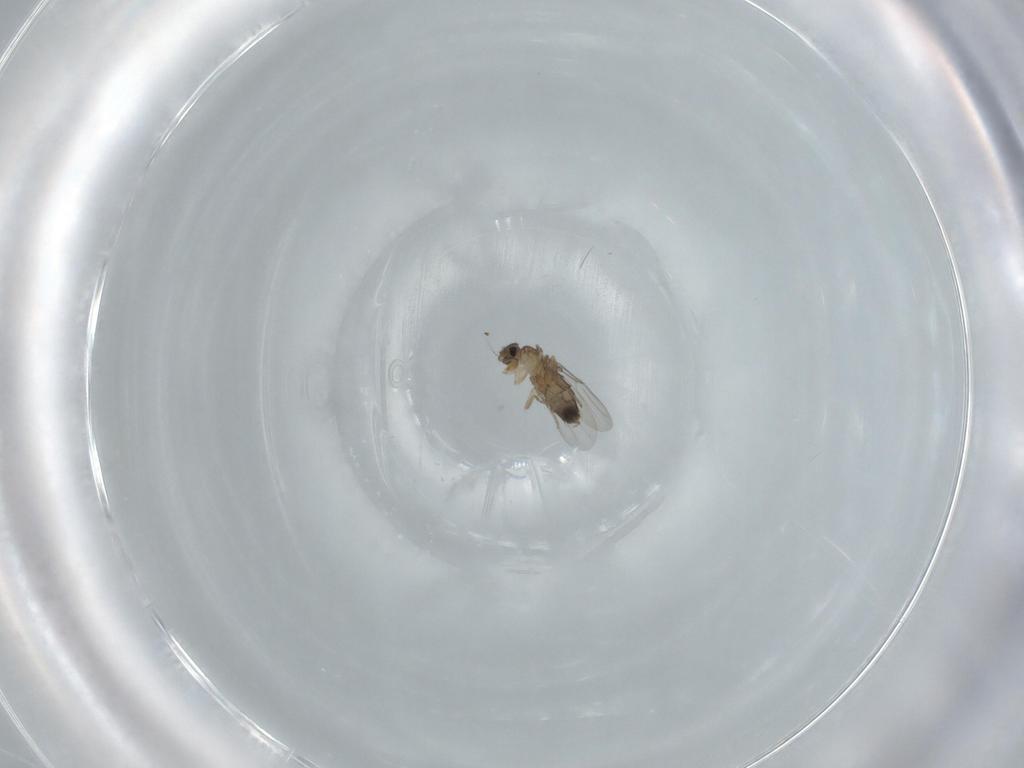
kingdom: Animalia
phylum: Arthropoda
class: Insecta
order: Diptera
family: Phoridae
